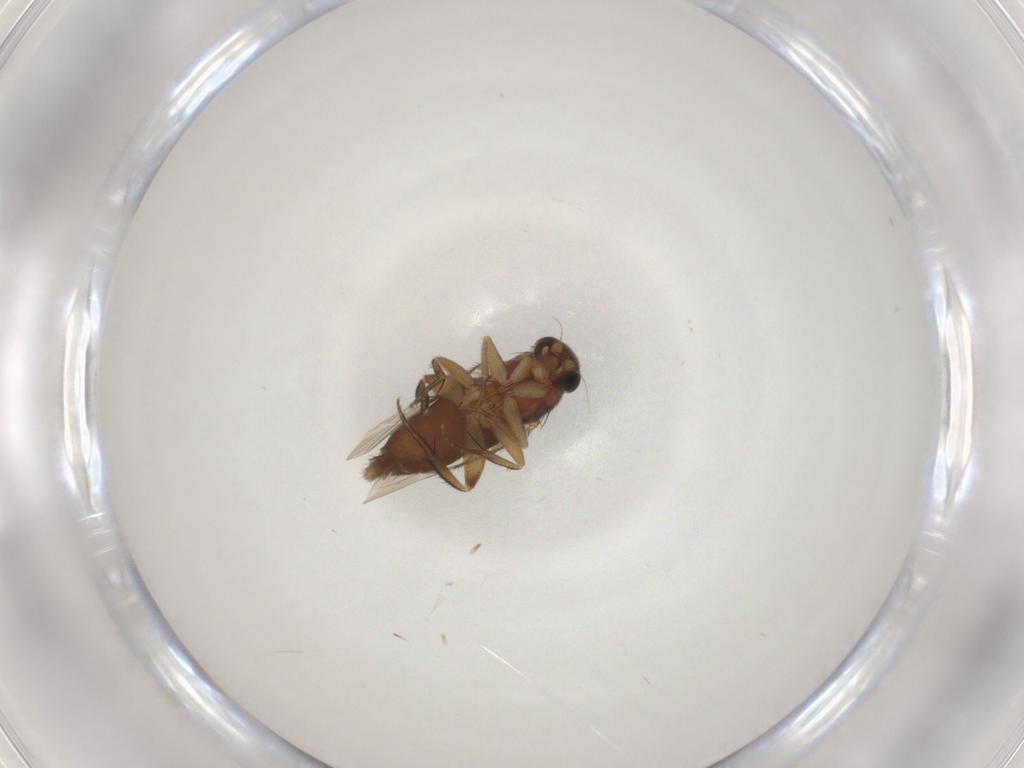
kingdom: Animalia
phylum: Arthropoda
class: Insecta
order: Diptera
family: Phoridae
